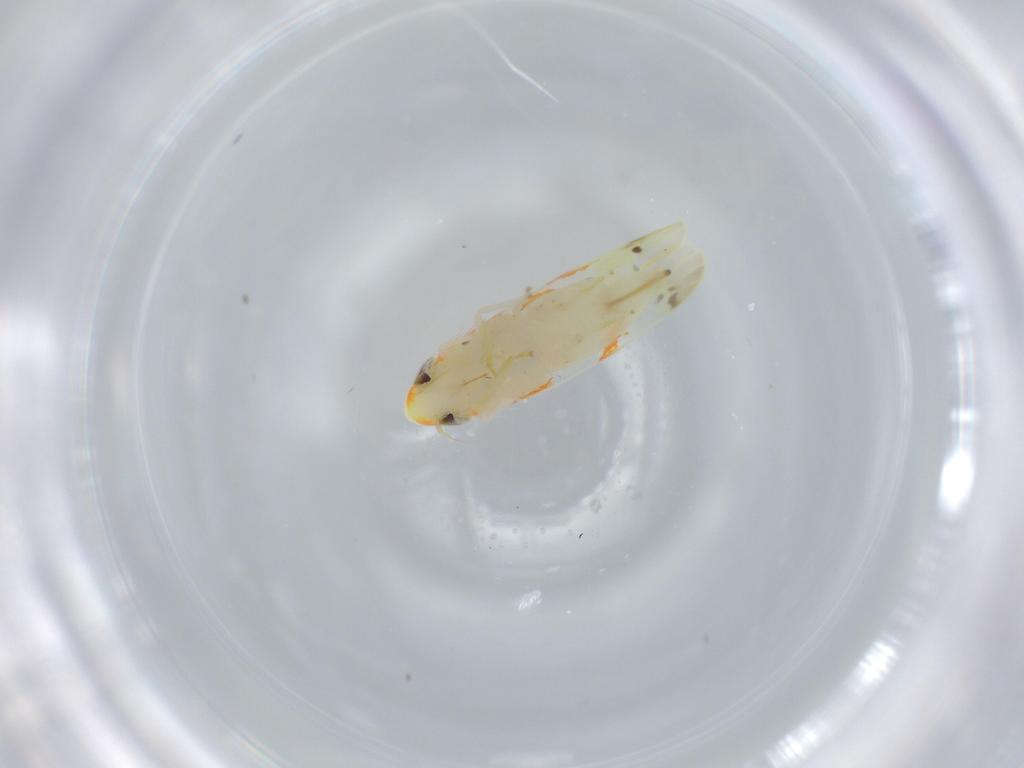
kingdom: Animalia
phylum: Arthropoda
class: Insecta
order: Hemiptera
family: Cicadellidae
